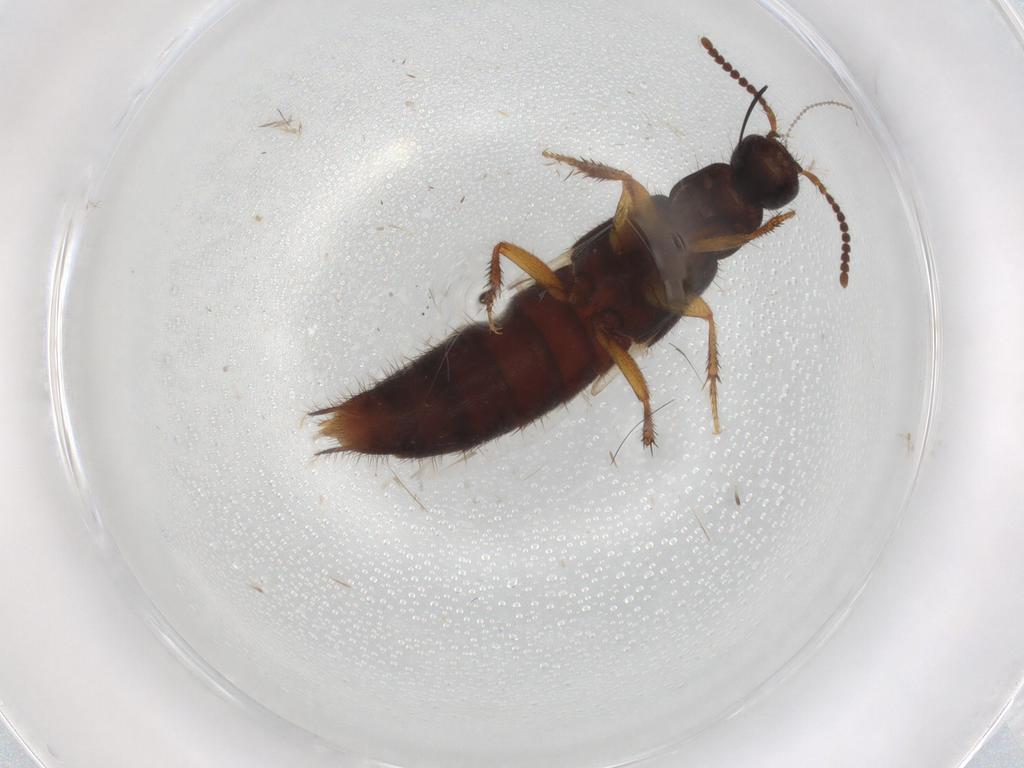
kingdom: Animalia
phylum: Arthropoda
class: Insecta
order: Coleoptera
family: Staphylinidae
